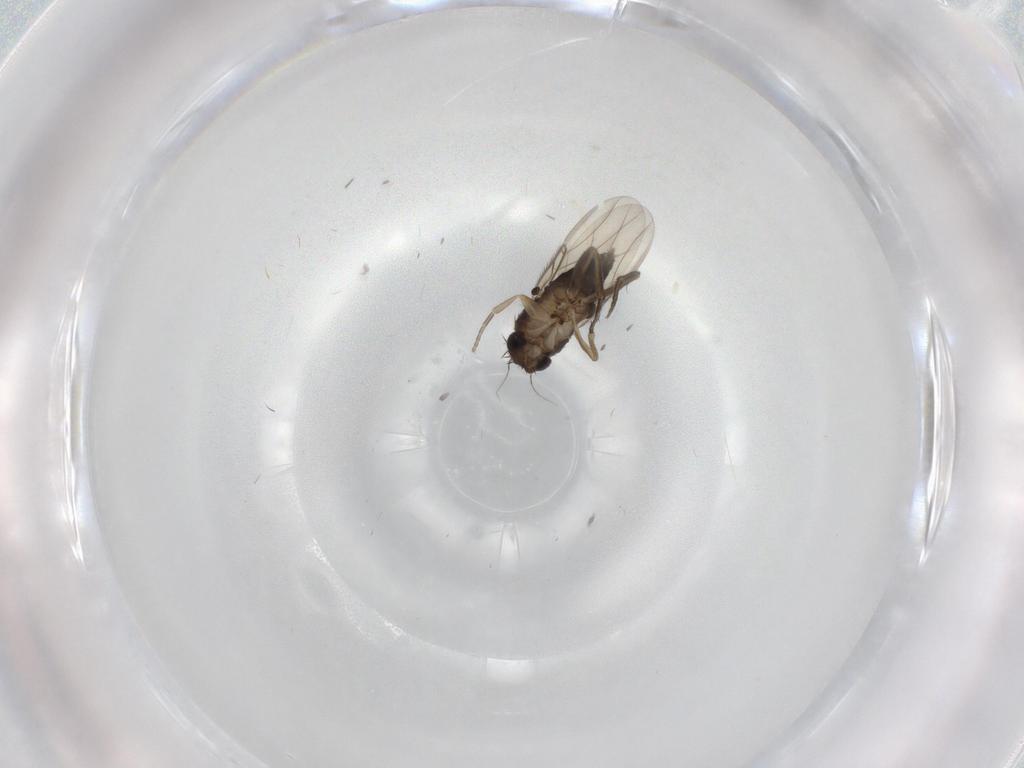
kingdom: Animalia
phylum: Arthropoda
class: Insecta
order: Diptera
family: Phoridae
